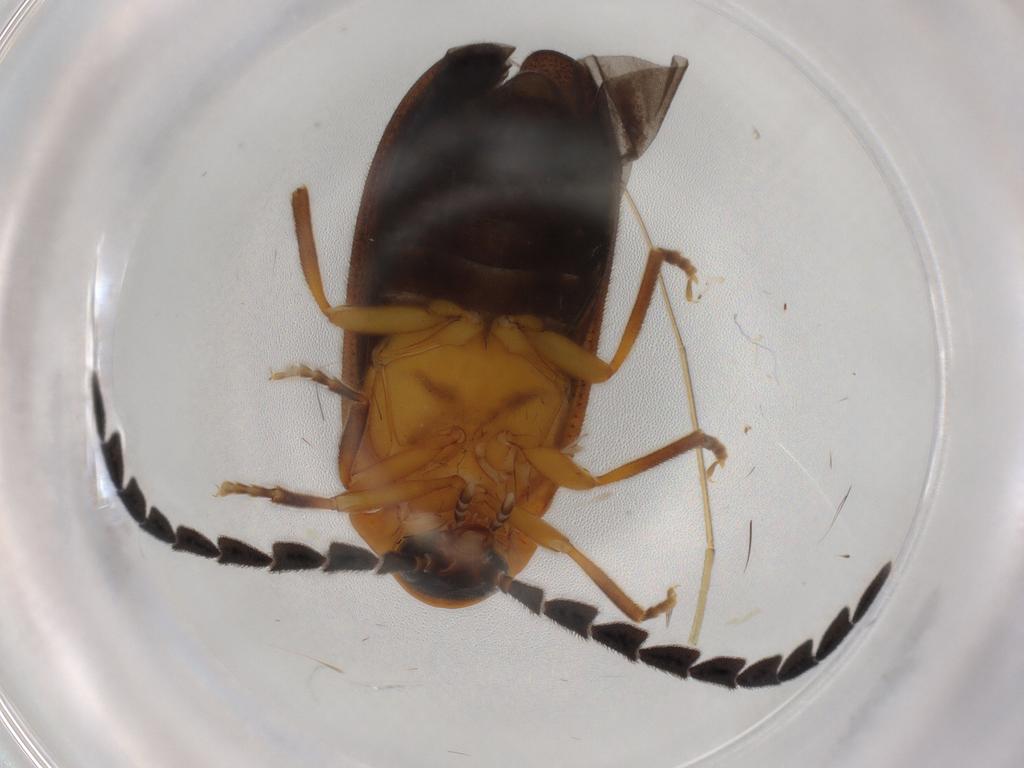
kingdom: Animalia
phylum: Arthropoda
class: Insecta
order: Coleoptera
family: Lampyridae
